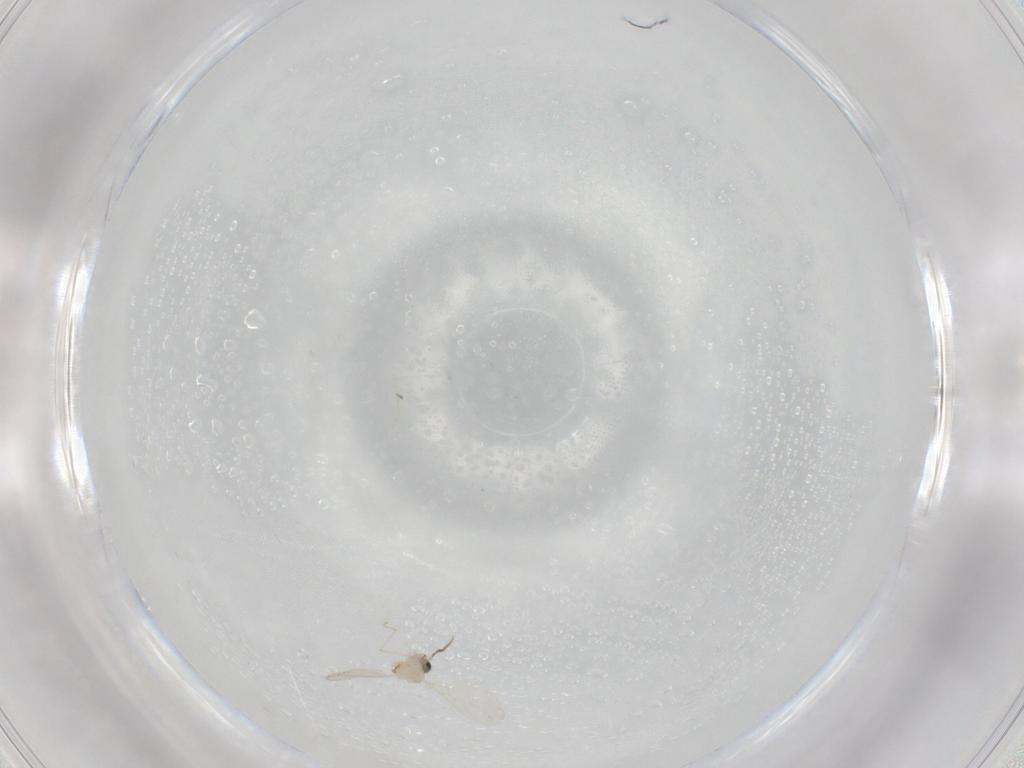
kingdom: Animalia
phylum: Arthropoda
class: Insecta
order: Diptera
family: Cecidomyiidae
